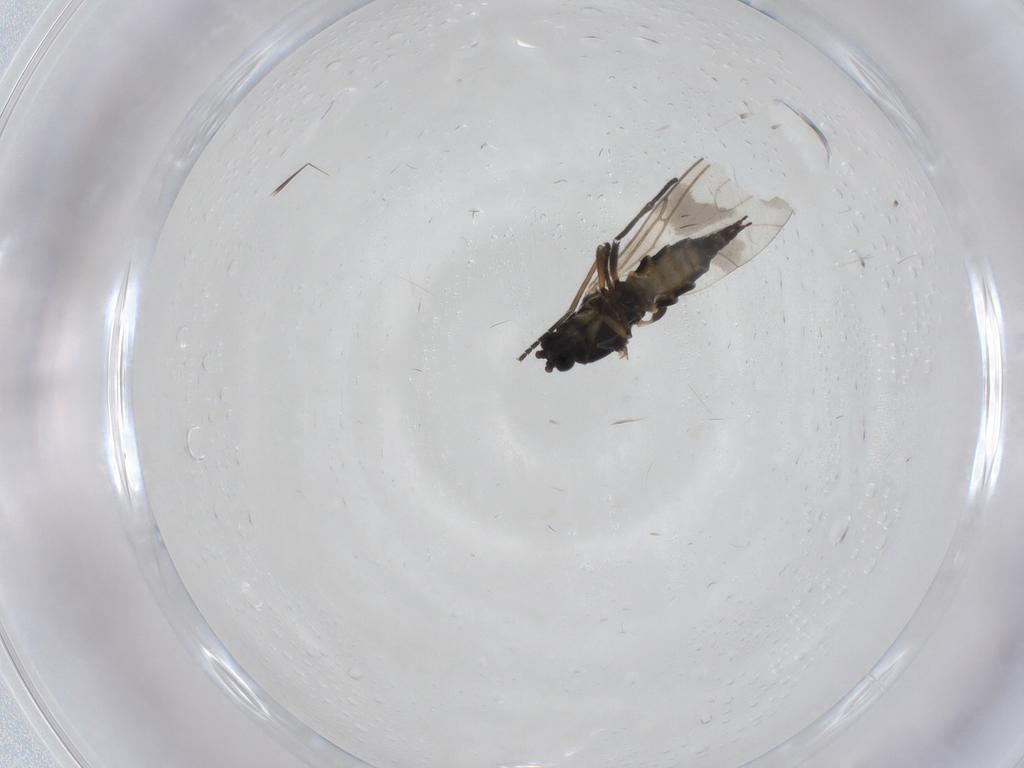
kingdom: Animalia
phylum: Arthropoda
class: Insecta
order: Diptera
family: Sciaridae
